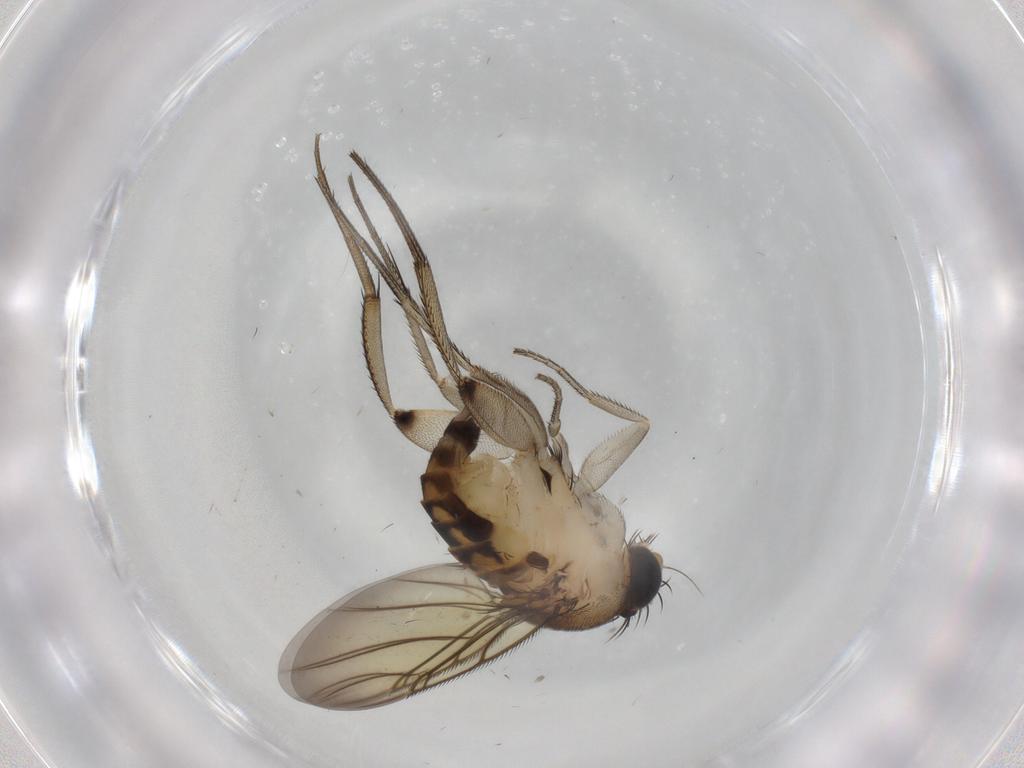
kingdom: Animalia
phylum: Arthropoda
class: Insecta
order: Diptera
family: Phoridae
